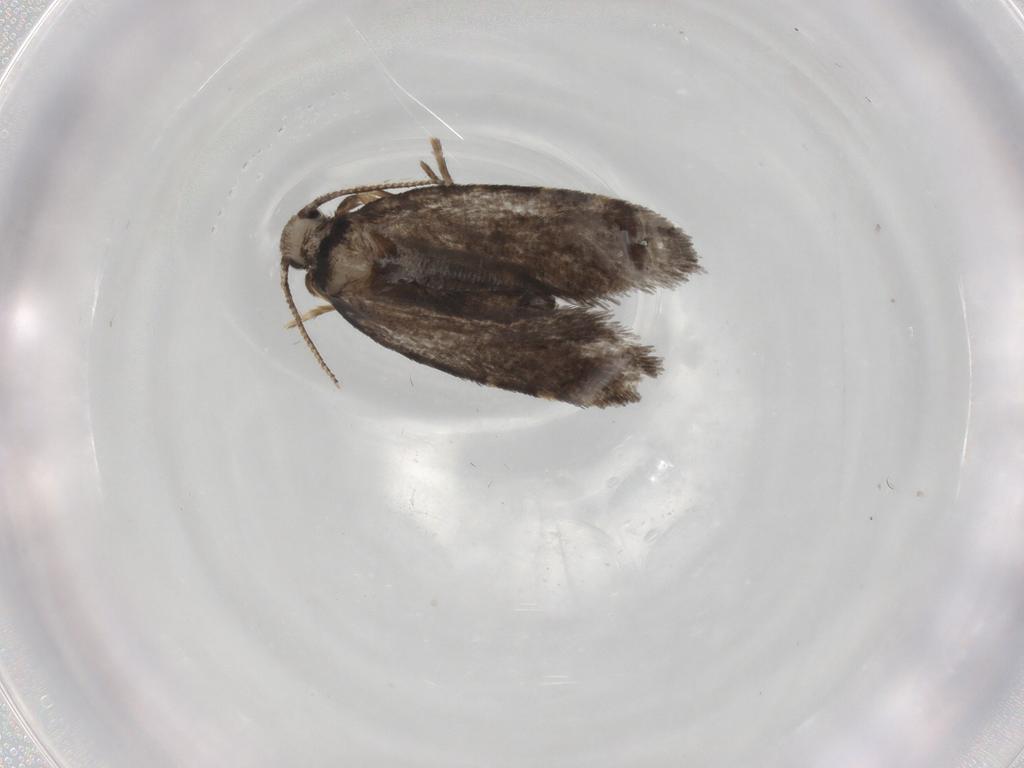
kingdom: Animalia
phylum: Arthropoda
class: Insecta
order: Lepidoptera
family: Psychidae
